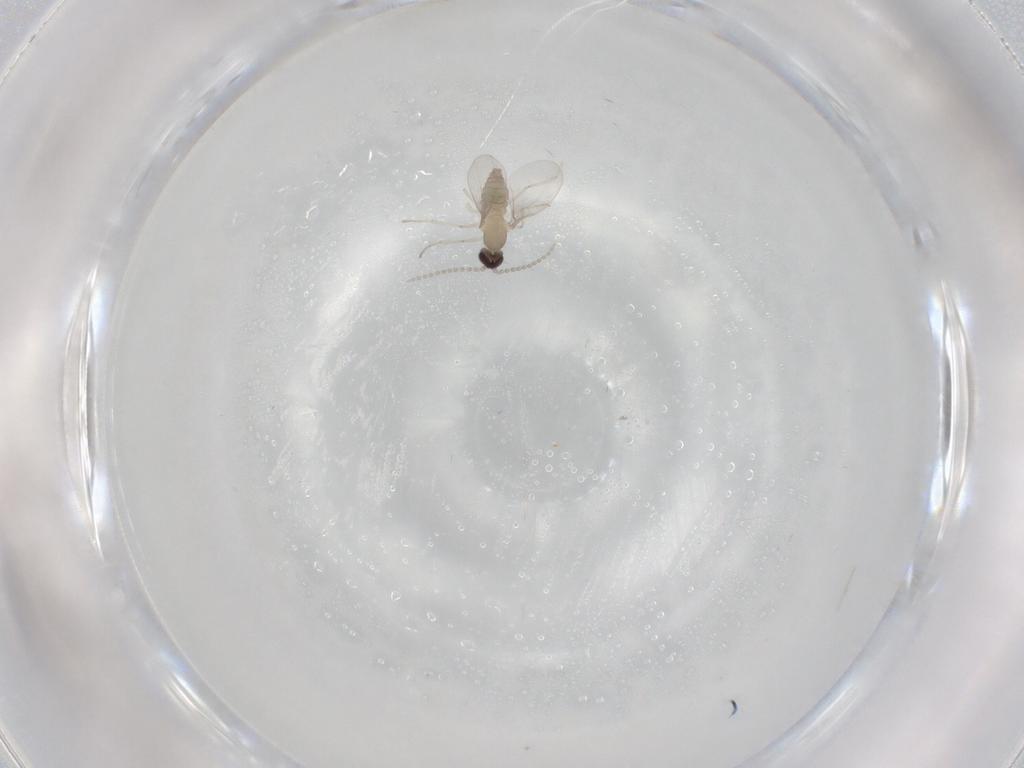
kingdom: Animalia
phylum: Arthropoda
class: Insecta
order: Diptera
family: Cecidomyiidae
